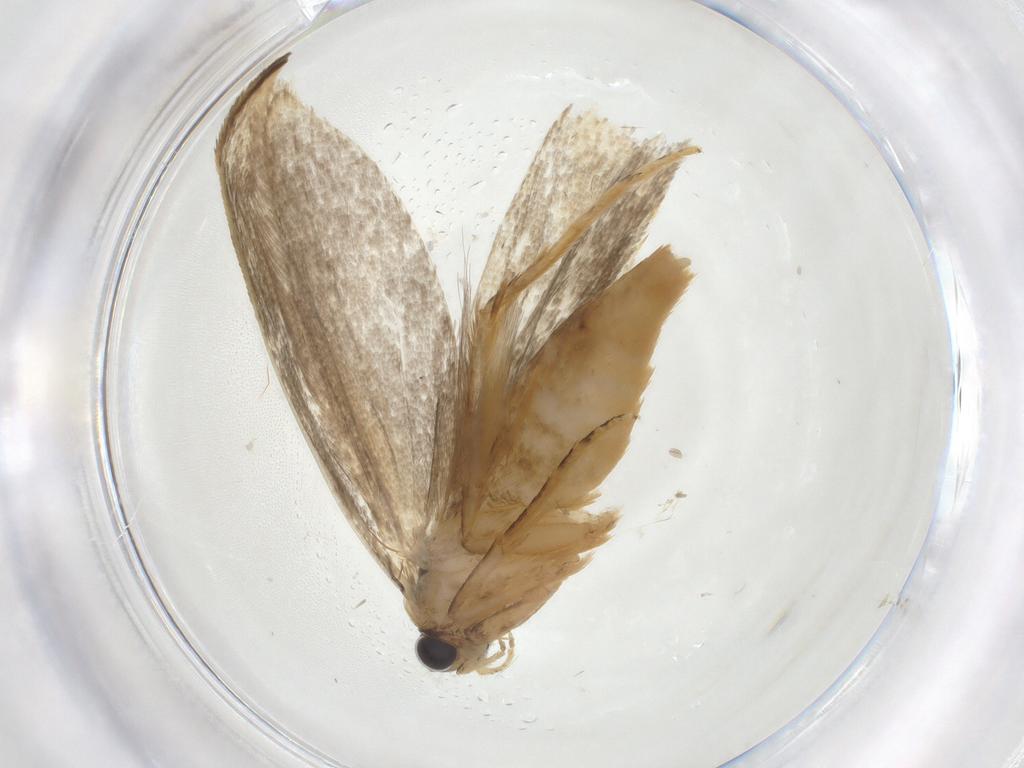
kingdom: Animalia
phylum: Arthropoda
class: Insecta
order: Lepidoptera
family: Tineidae
